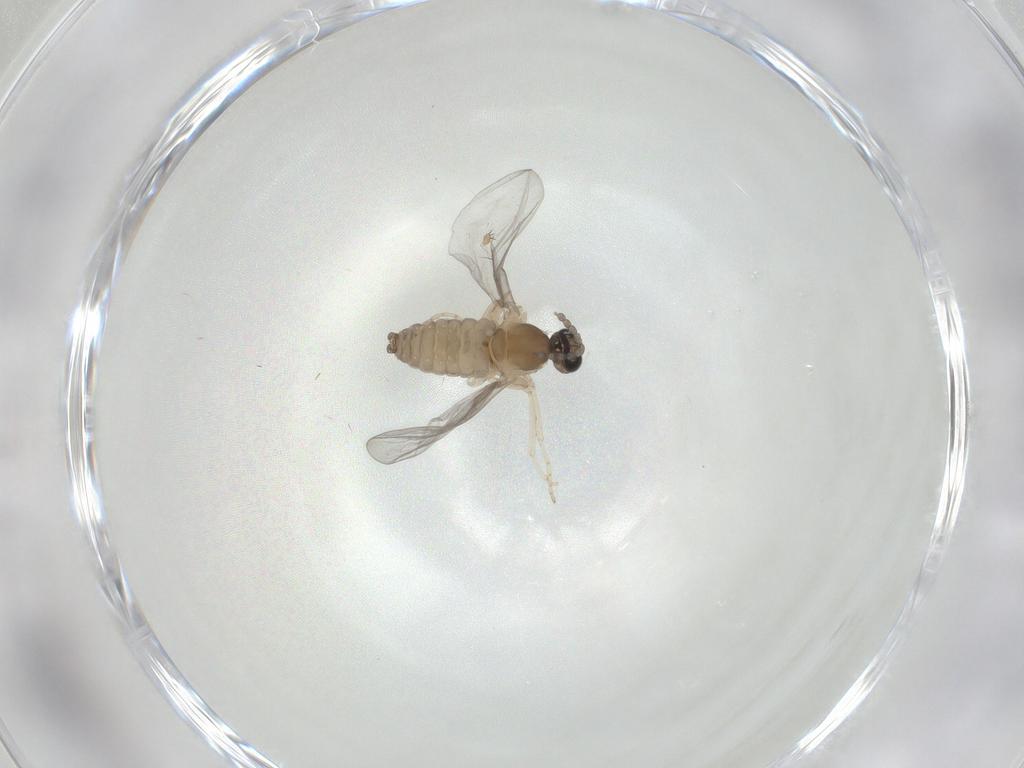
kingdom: Animalia
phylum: Arthropoda
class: Insecta
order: Diptera
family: Cecidomyiidae
